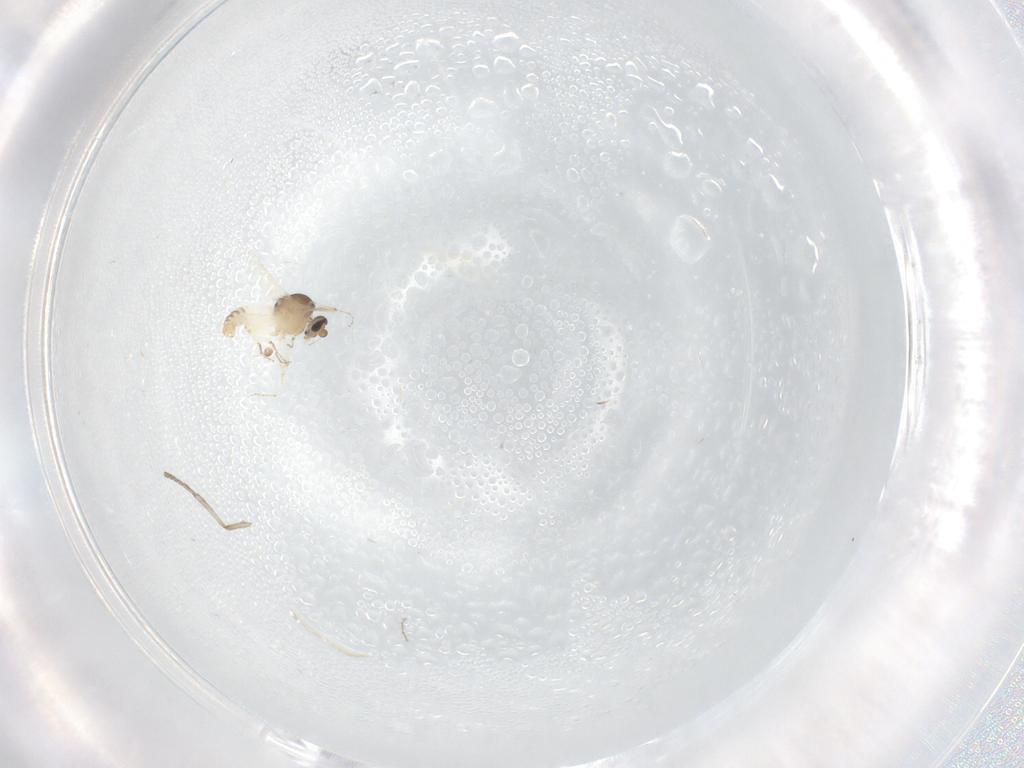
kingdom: Animalia
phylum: Arthropoda
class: Insecta
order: Diptera
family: Psychodidae
